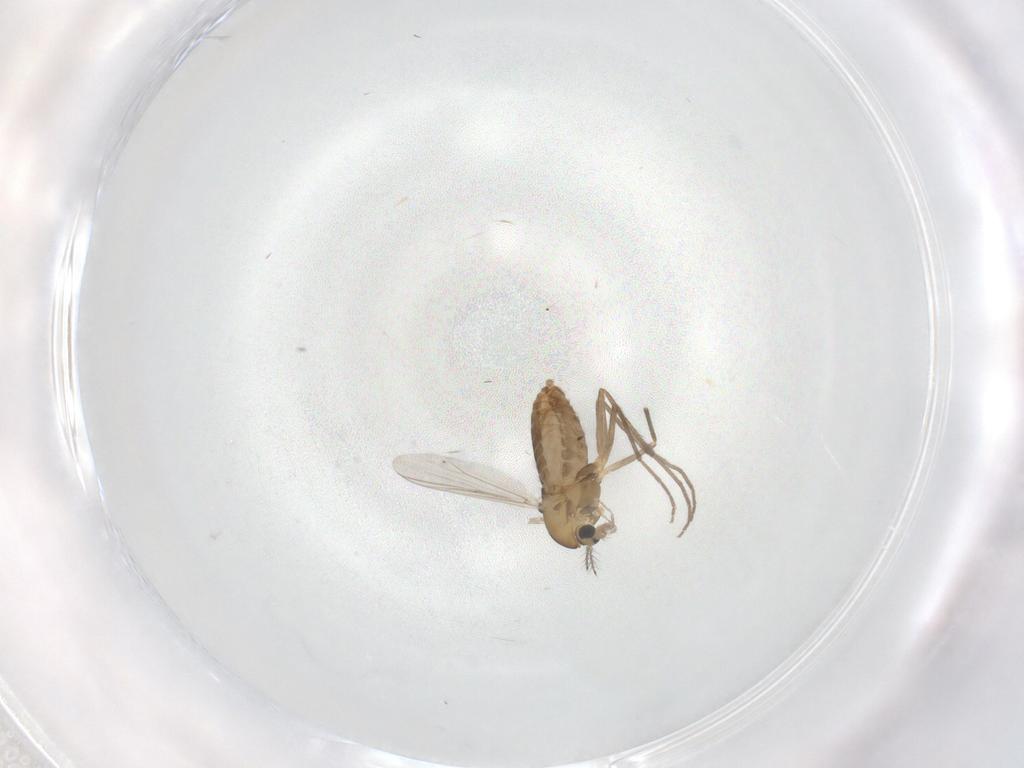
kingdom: Animalia
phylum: Arthropoda
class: Insecta
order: Diptera
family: Chironomidae
